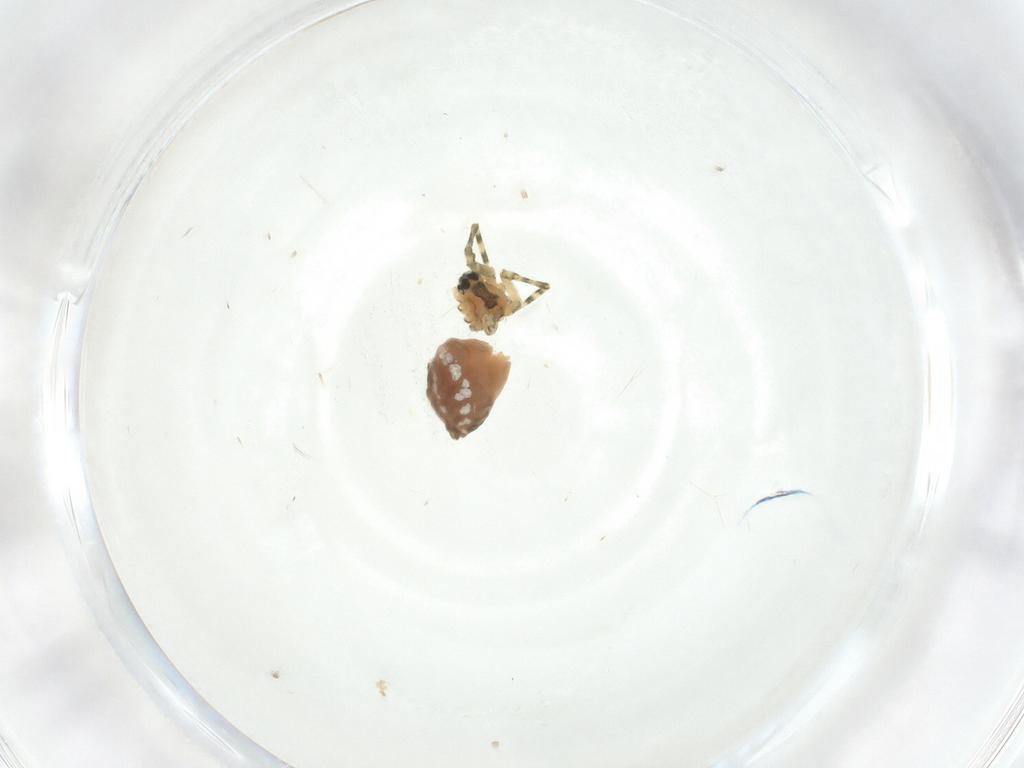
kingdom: Animalia
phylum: Arthropoda
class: Arachnida
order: Araneae
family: Linyphiidae
